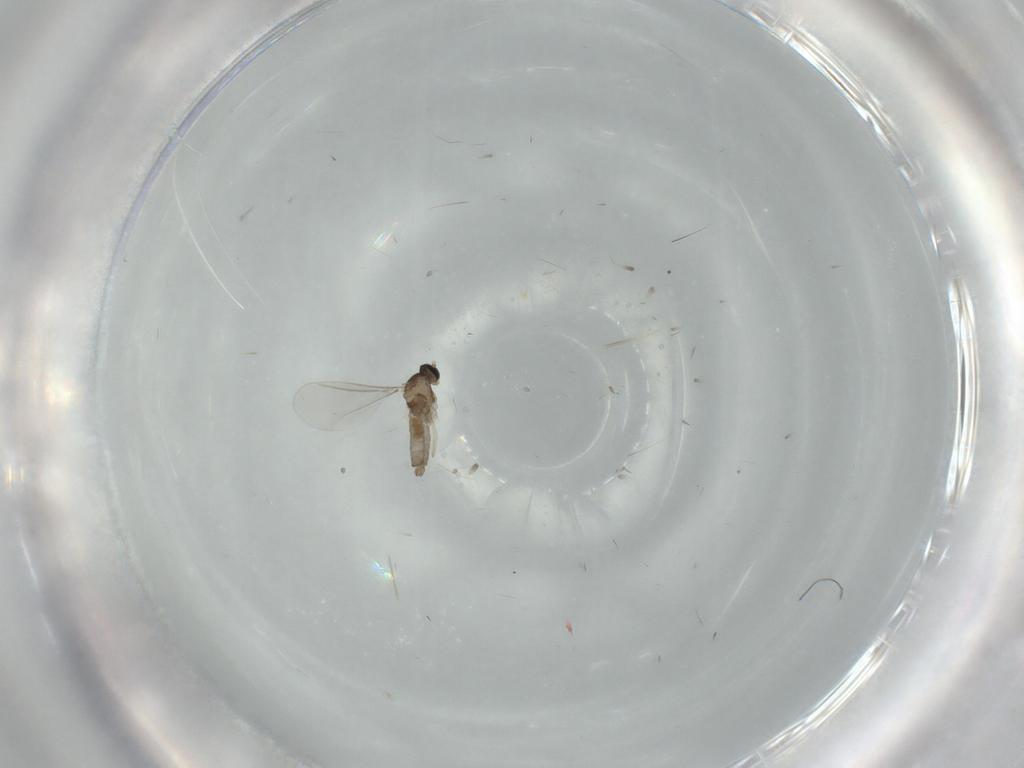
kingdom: Animalia
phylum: Arthropoda
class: Insecta
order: Diptera
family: Cecidomyiidae
